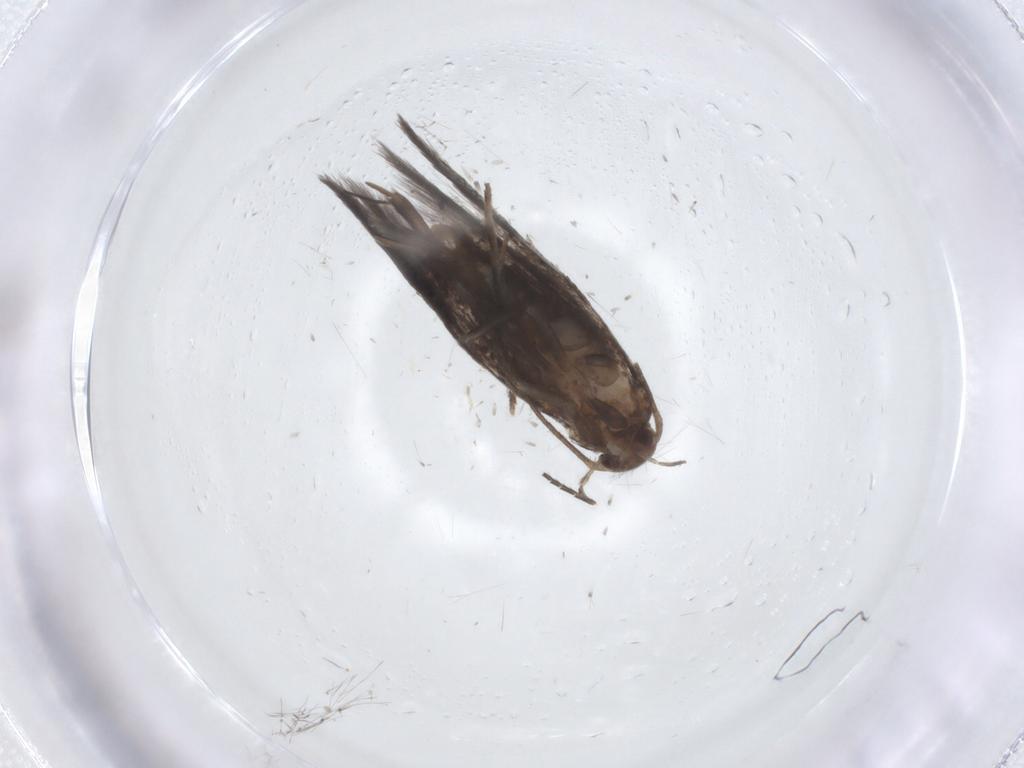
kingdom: Animalia
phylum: Arthropoda
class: Insecta
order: Lepidoptera
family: Elachistidae
